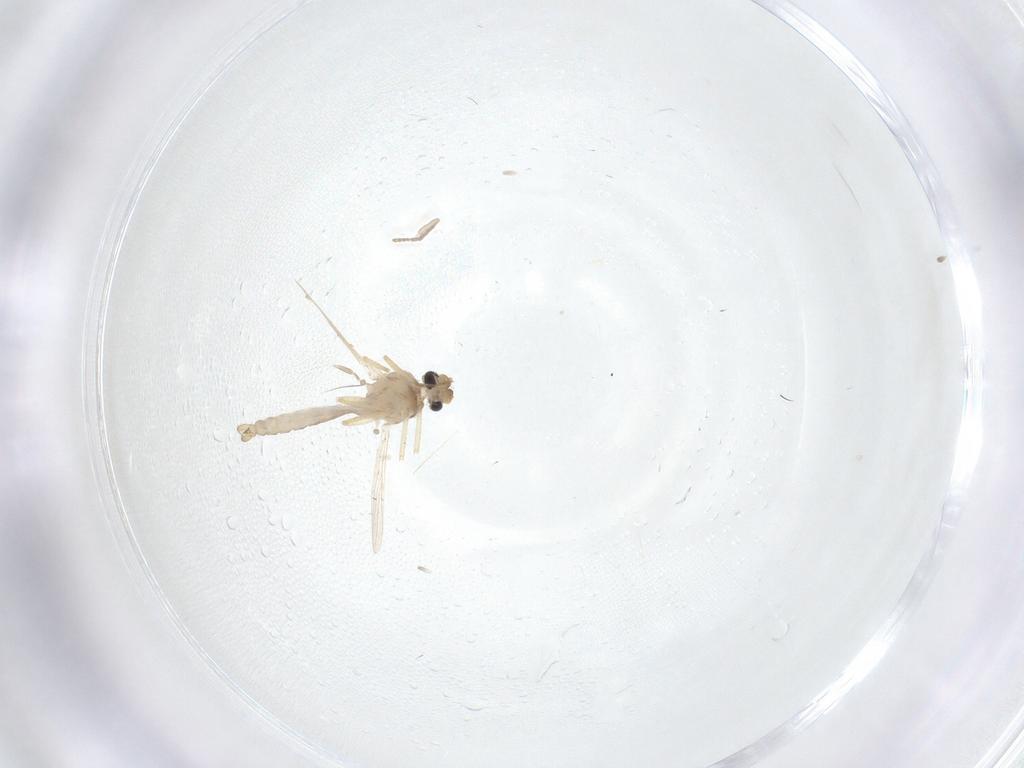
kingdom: Animalia
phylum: Arthropoda
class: Insecta
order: Diptera
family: Ceratopogonidae
